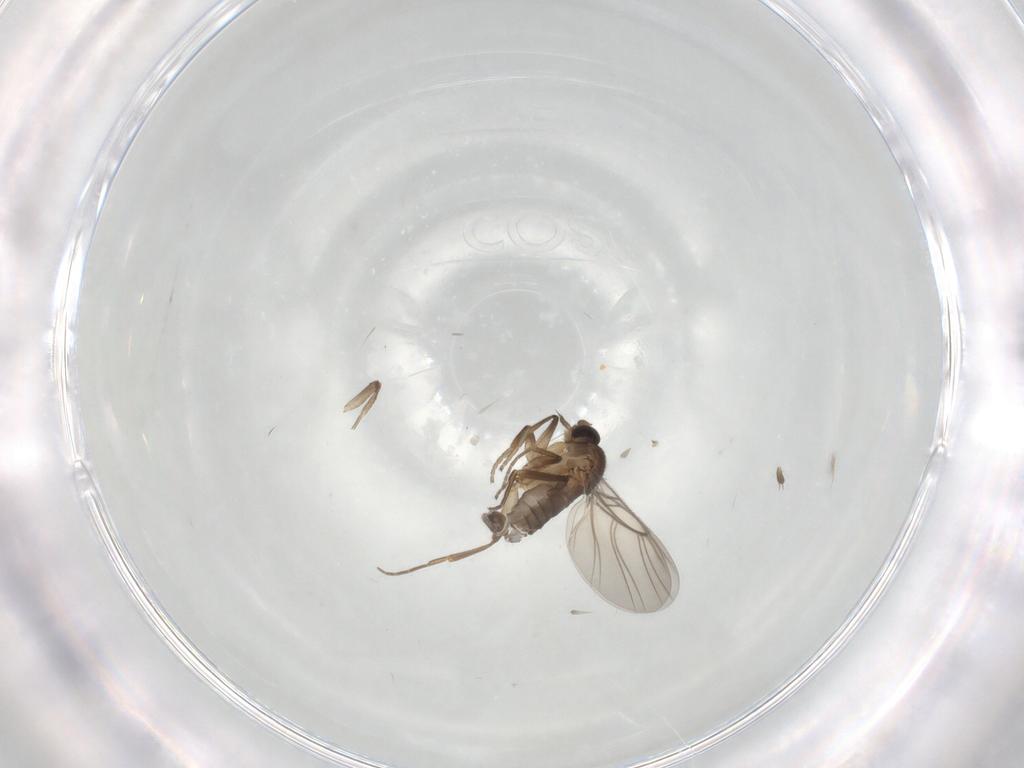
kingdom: Animalia
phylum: Arthropoda
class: Insecta
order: Diptera
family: Phoridae
